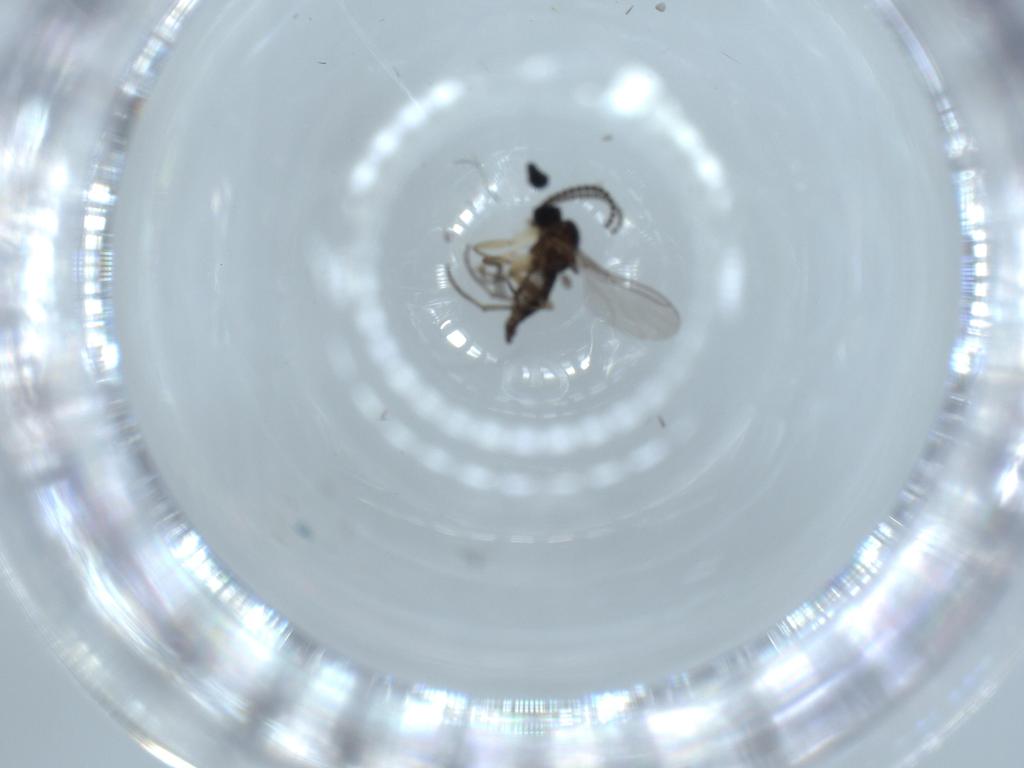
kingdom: Animalia
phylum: Arthropoda
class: Insecta
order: Diptera
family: Sciaridae
